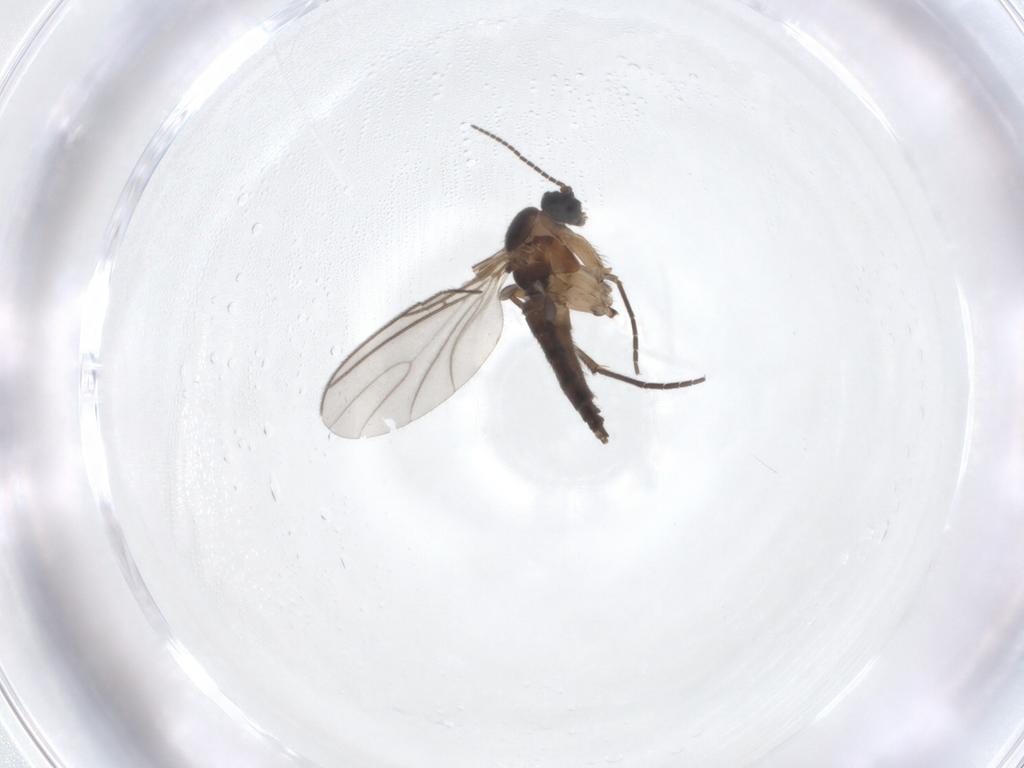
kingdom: Animalia
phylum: Arthropoda
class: Insecta
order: Diptera
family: Sciaridae
